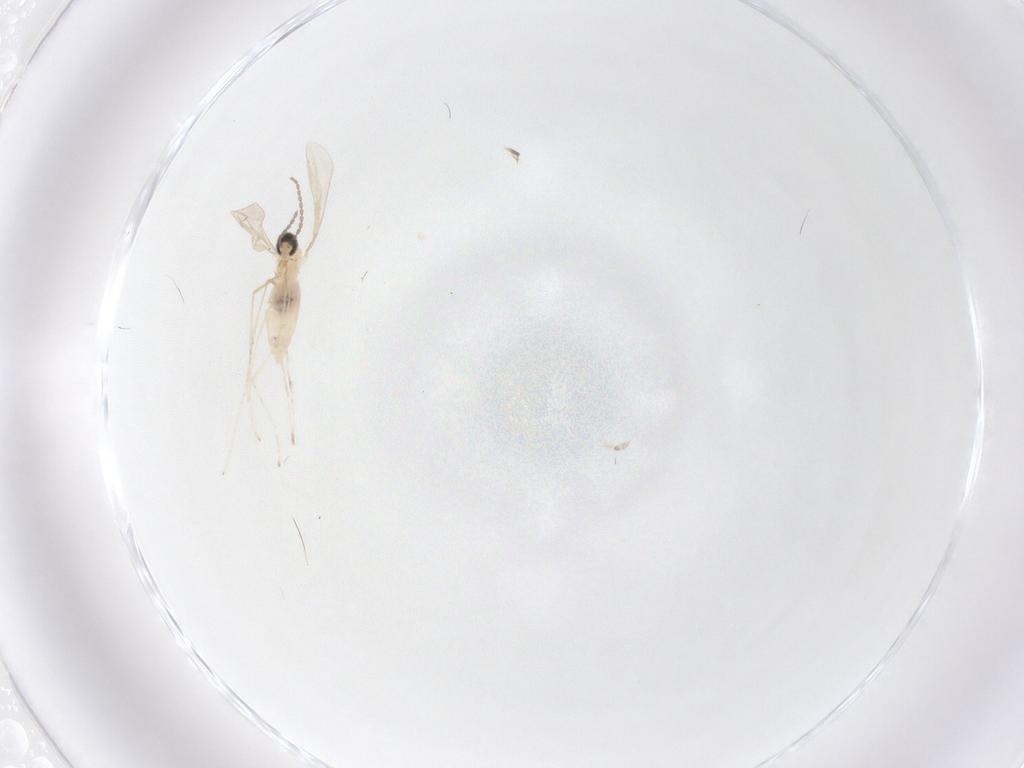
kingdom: Animalia
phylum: Arthropoda
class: Insecta
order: Diptera
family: Cecidomyiidae
